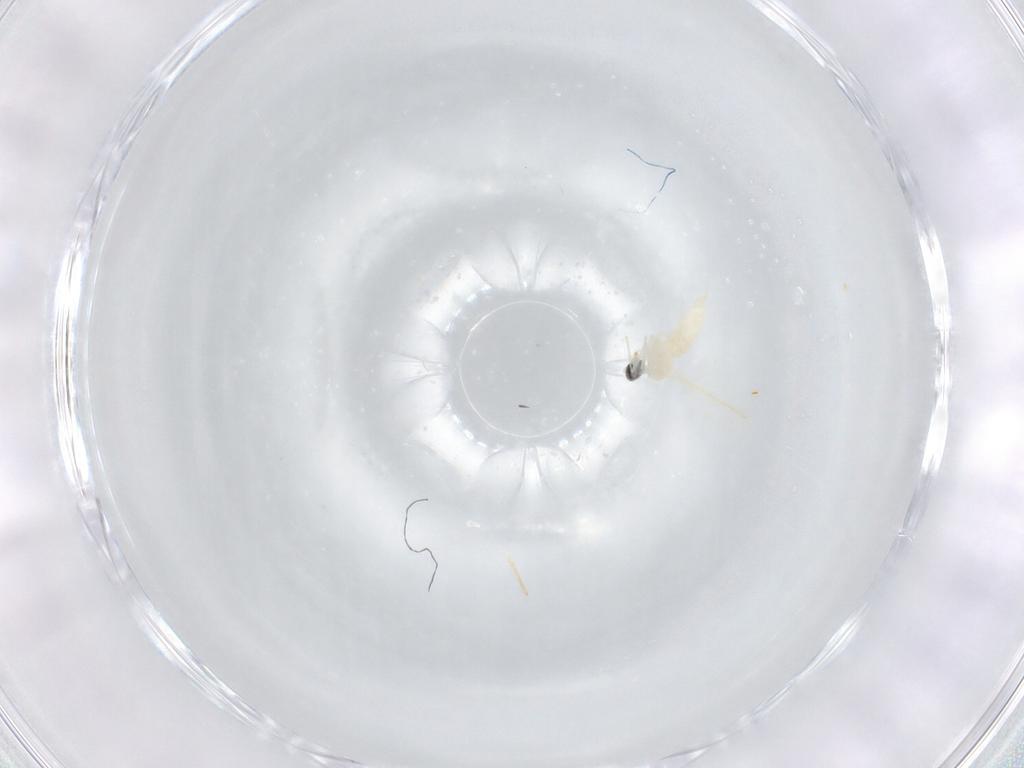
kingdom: Animalia
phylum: Arthropoda
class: Insecta
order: Diptera
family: Cecidomyiidae
